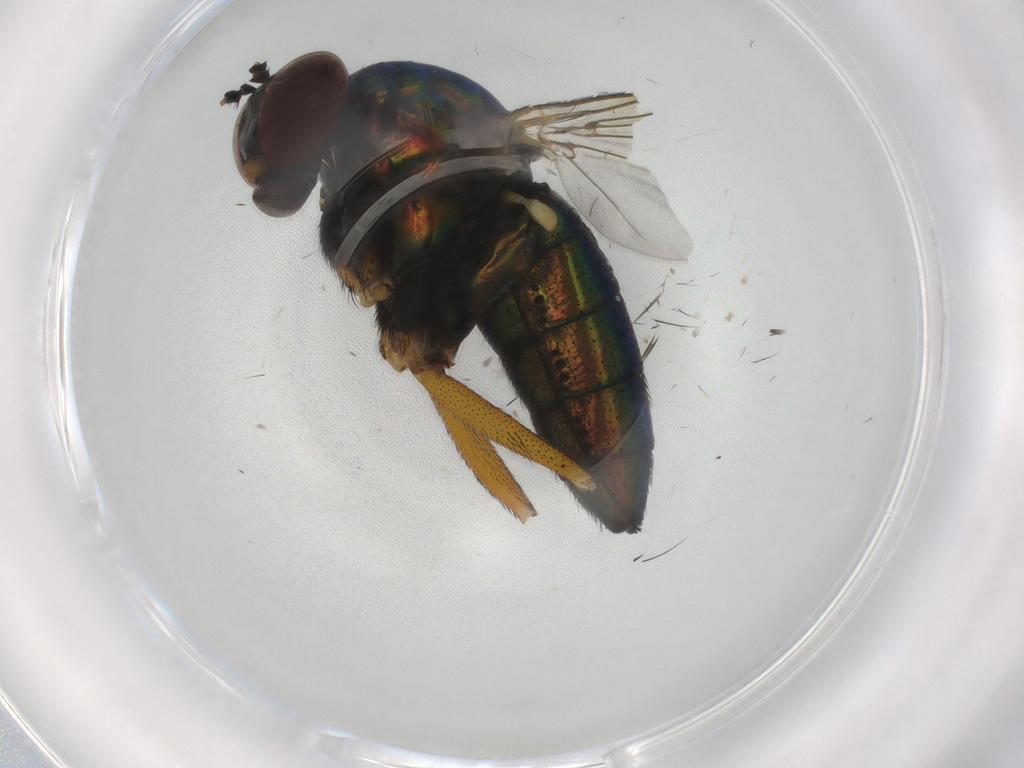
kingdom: Animalia
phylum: Arthropoda
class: Insecta
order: Diptera
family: Dolichopodidae
